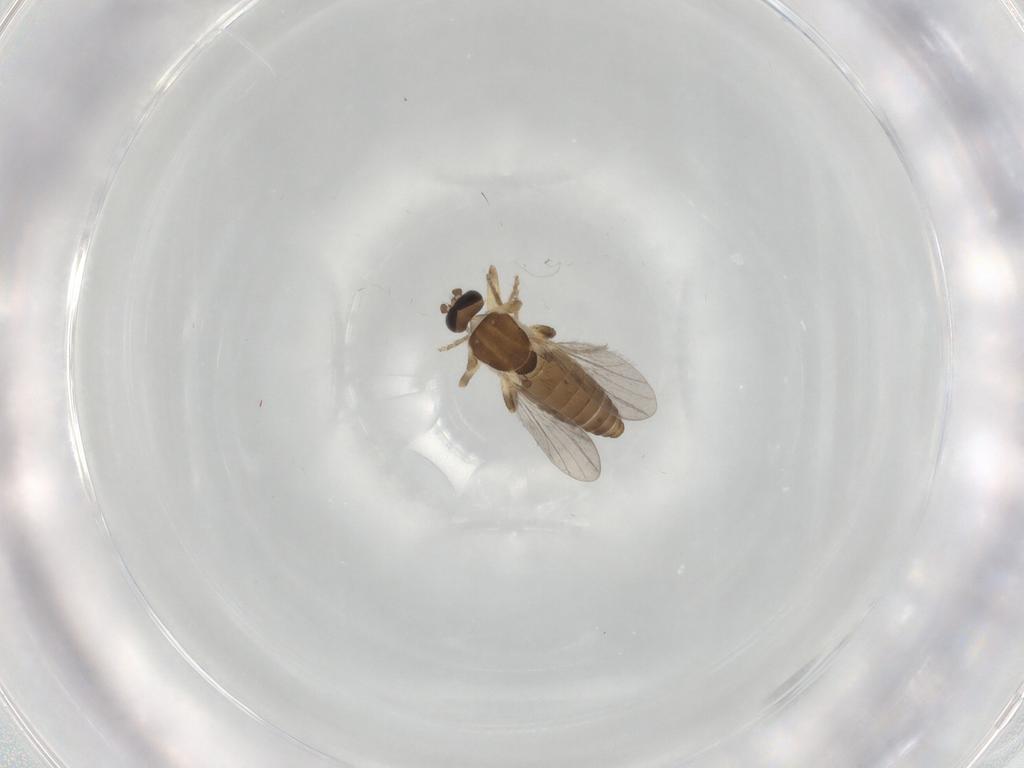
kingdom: Animalia
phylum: Arthropoda
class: Insecta
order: Diptera
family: Ceratopogonidae
